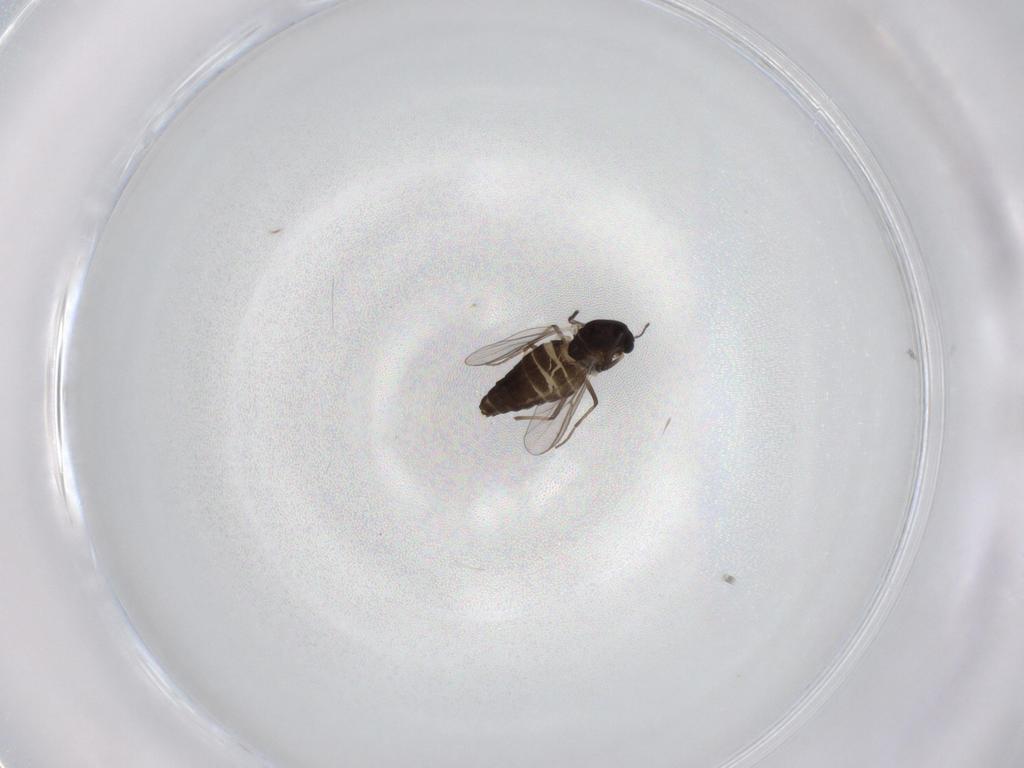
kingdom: Animalia
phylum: Arthropoda
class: Insecta
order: Diptera
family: Chironomidae
